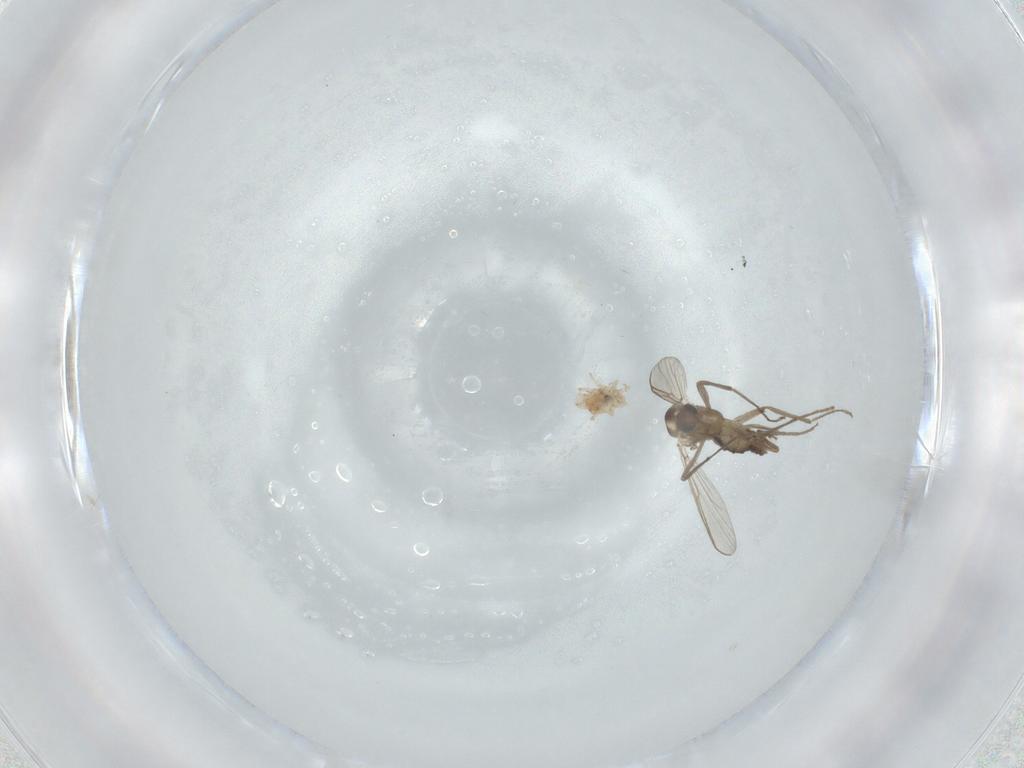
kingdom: Animalia
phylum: Arthropoda
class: Insecta
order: Diptera
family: Chironomidae
